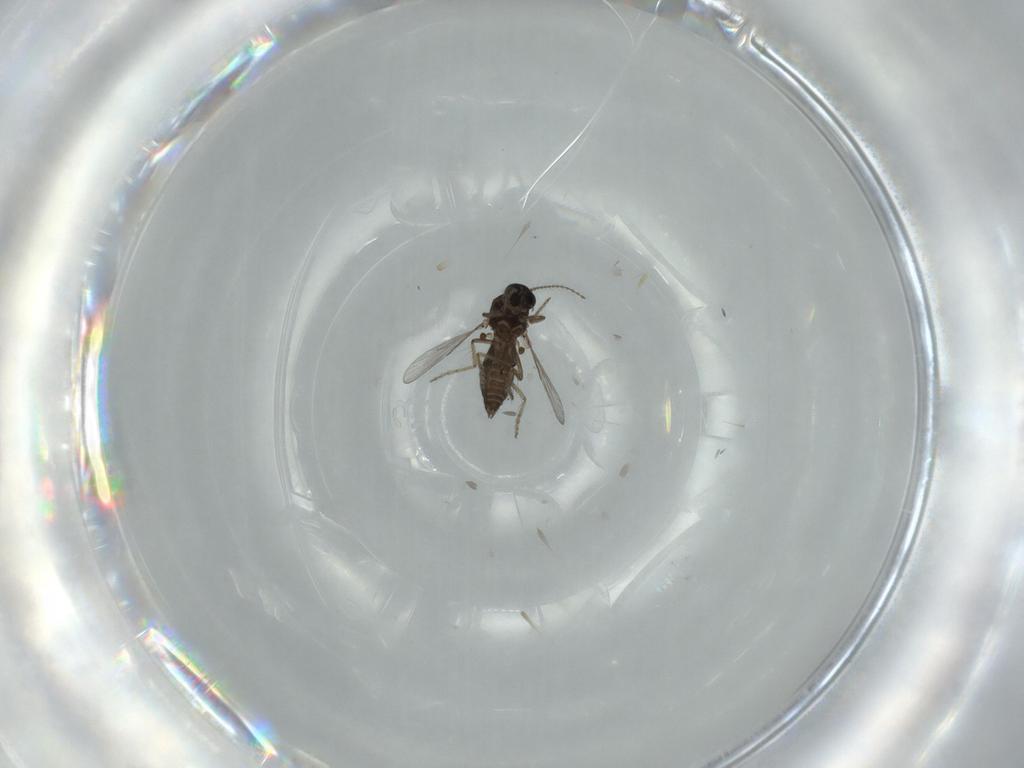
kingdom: Animalia
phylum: Arthropoda
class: Insecta
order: Diptera
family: Ceratopogonidae
